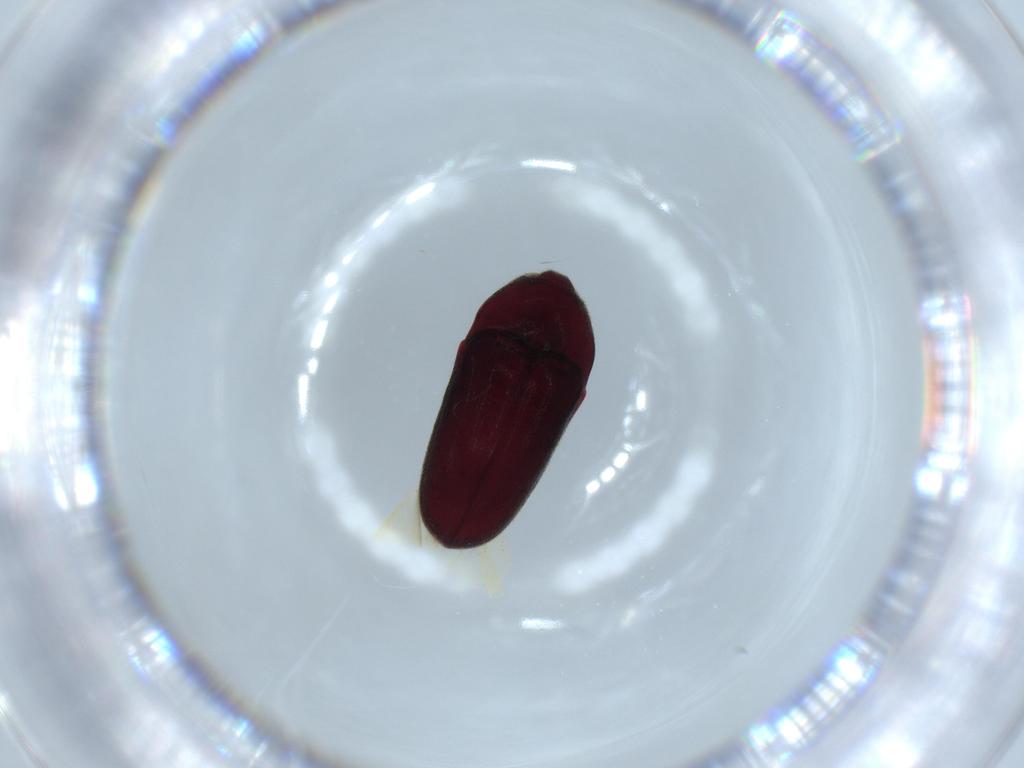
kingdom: Animalia
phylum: Arthropoda
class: Insecta
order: Coleoptera
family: Throscidae
